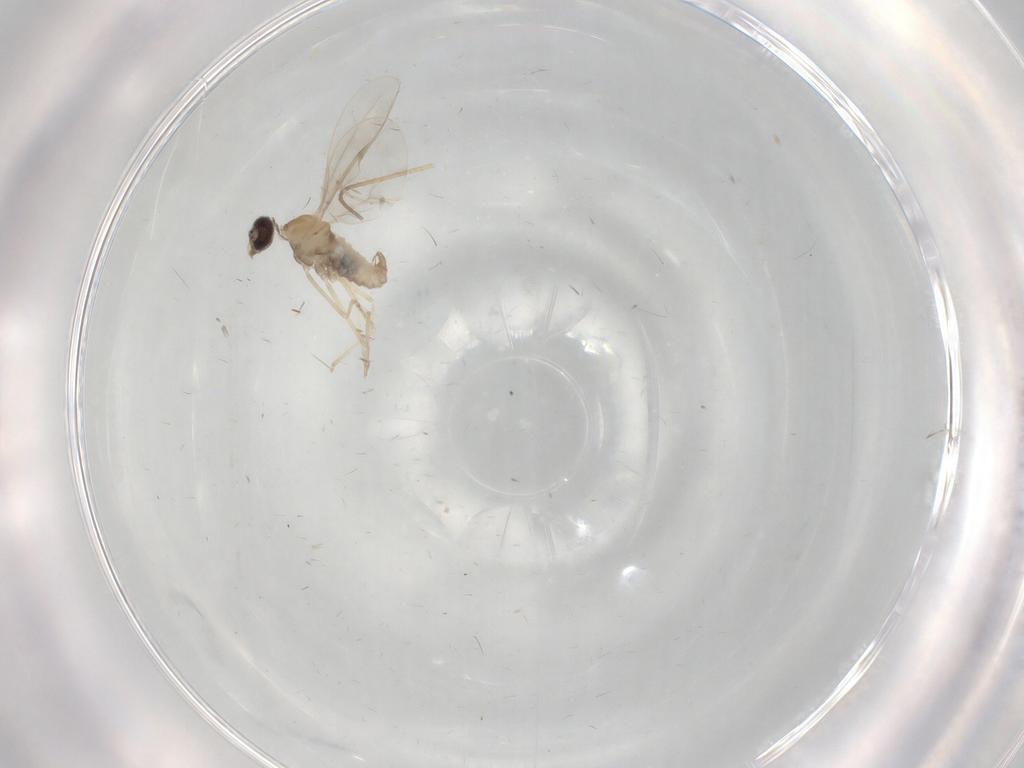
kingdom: Animalia
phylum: Arthropoda
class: Insecta
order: Diptera
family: Cecidomyiidae
